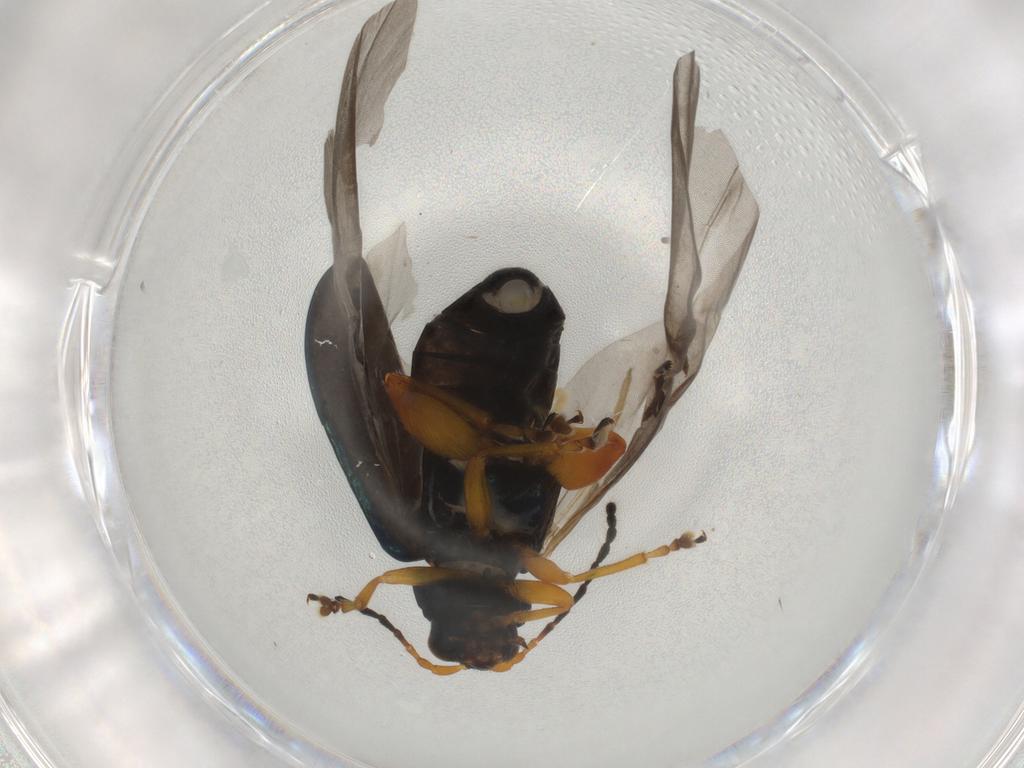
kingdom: Animalia
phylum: Arthropoda
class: Insecta
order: Coleoptera
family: Chrysomelidae
